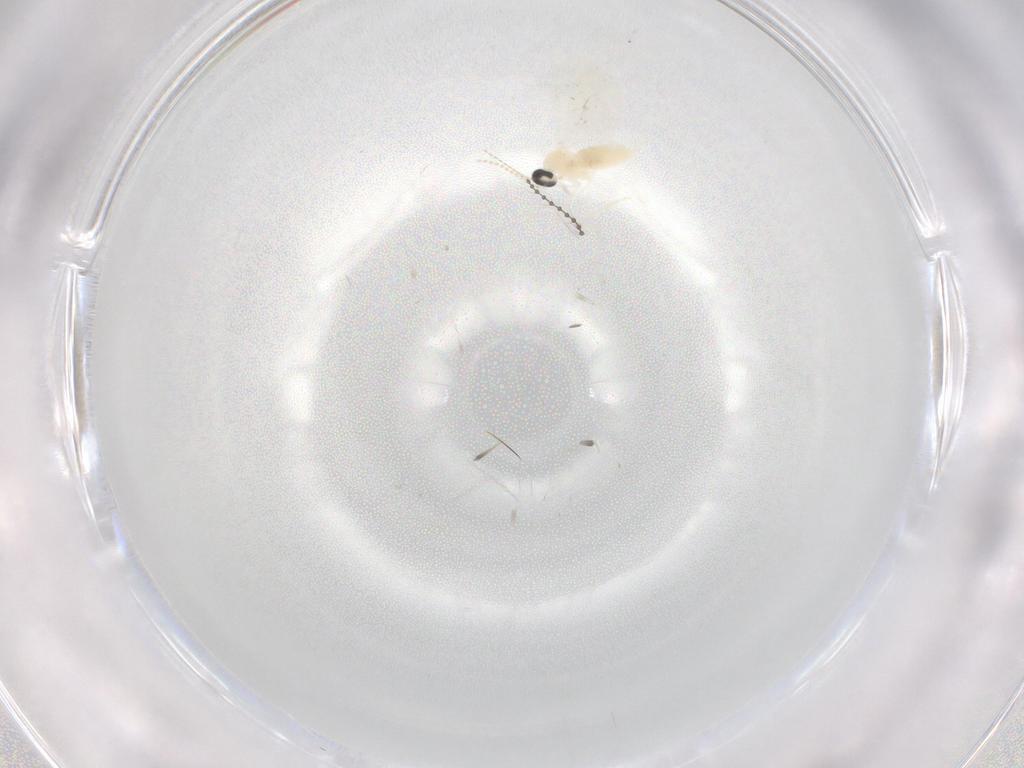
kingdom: Animalia
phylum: Arthropoda
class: Insecta
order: Diptera
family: Cecidomyiidae
